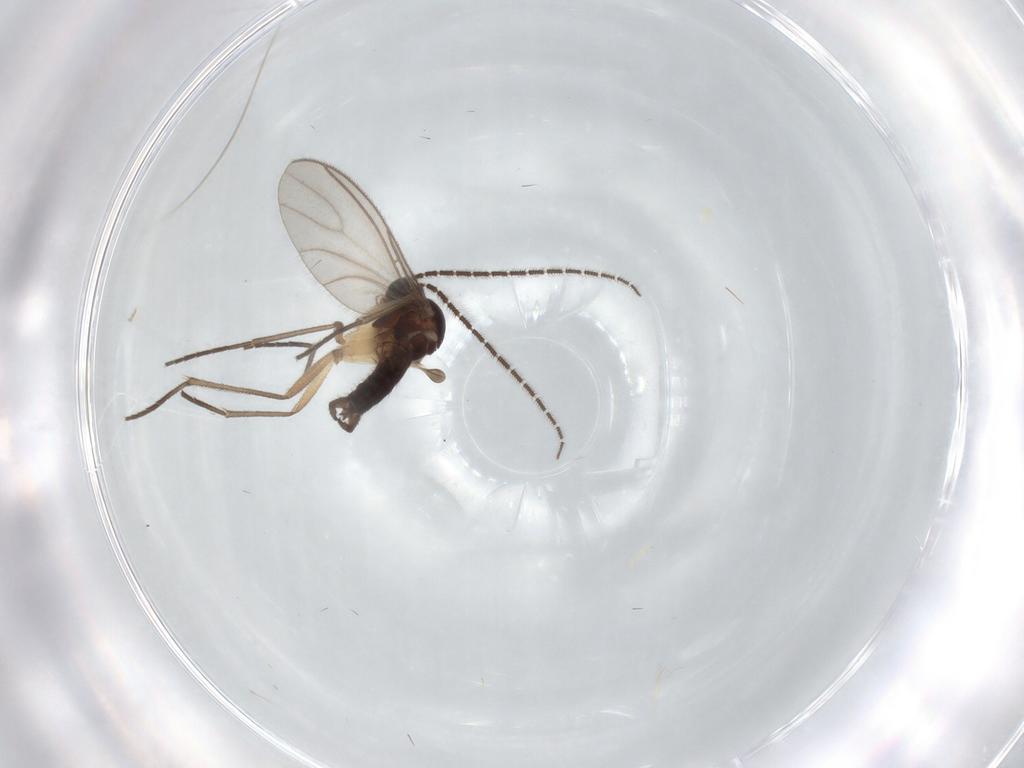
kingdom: Animalia
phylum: Arthropoda
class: Insecta
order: Diptera
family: Sciaridae
